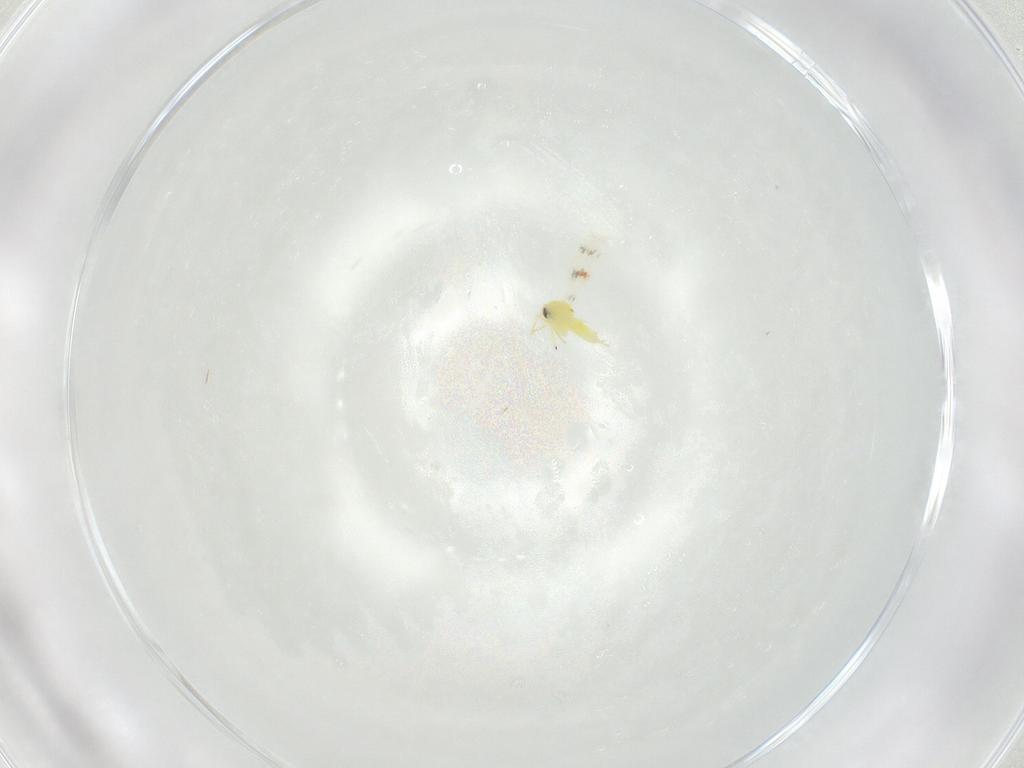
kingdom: Animalia
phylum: Arthropoda
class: Insecta
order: Hemiptera
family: Aleyrodidae
